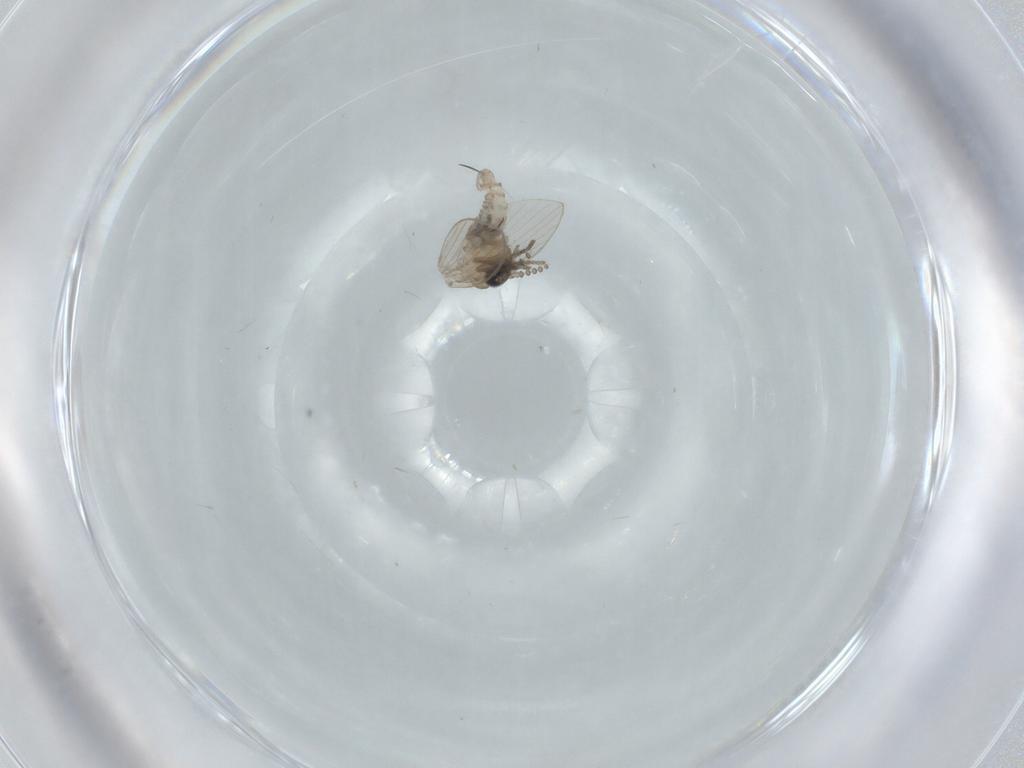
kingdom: Animalia
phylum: Arthropoda
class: Insecta
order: Diptera
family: Psychodidae
